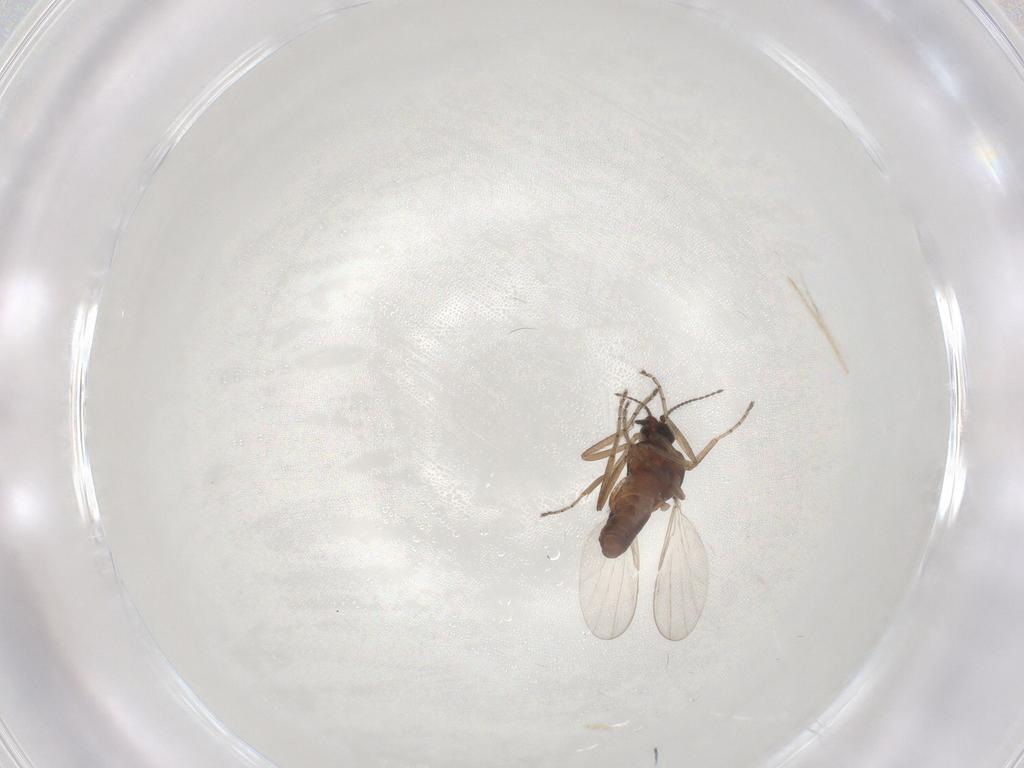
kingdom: Animalia
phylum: Arthropoda
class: Insecta
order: Diptera
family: Ceratopogonidae
